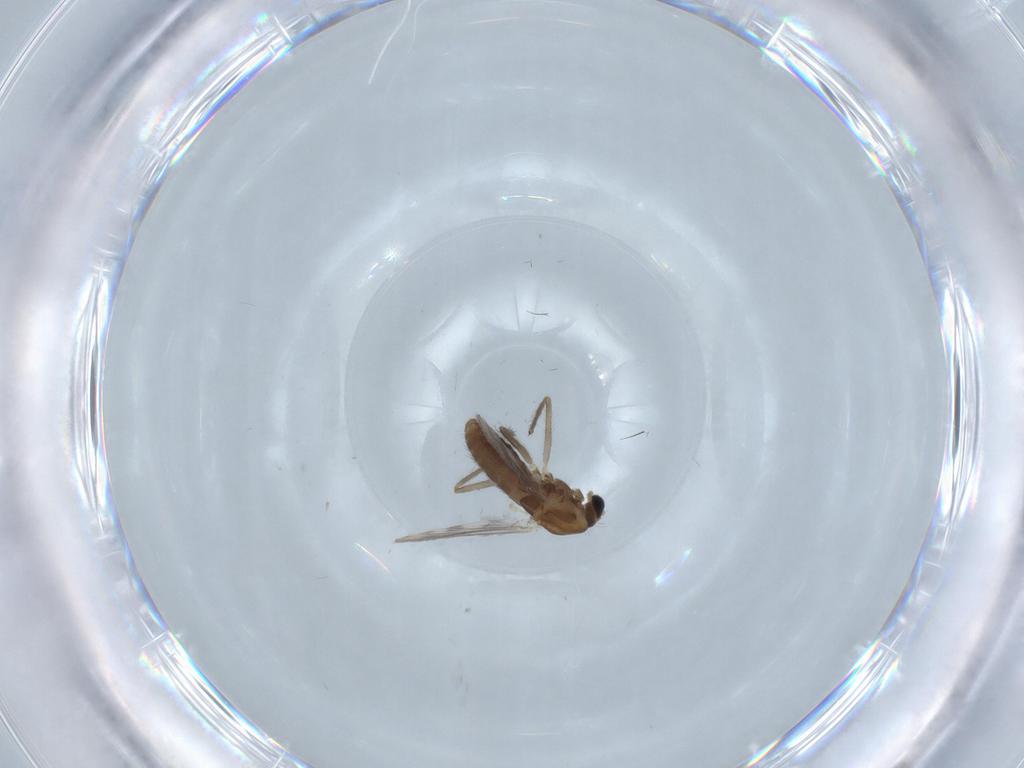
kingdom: Animalia
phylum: Arthropoda
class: Insecta
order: Diptera
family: Chironomidae
